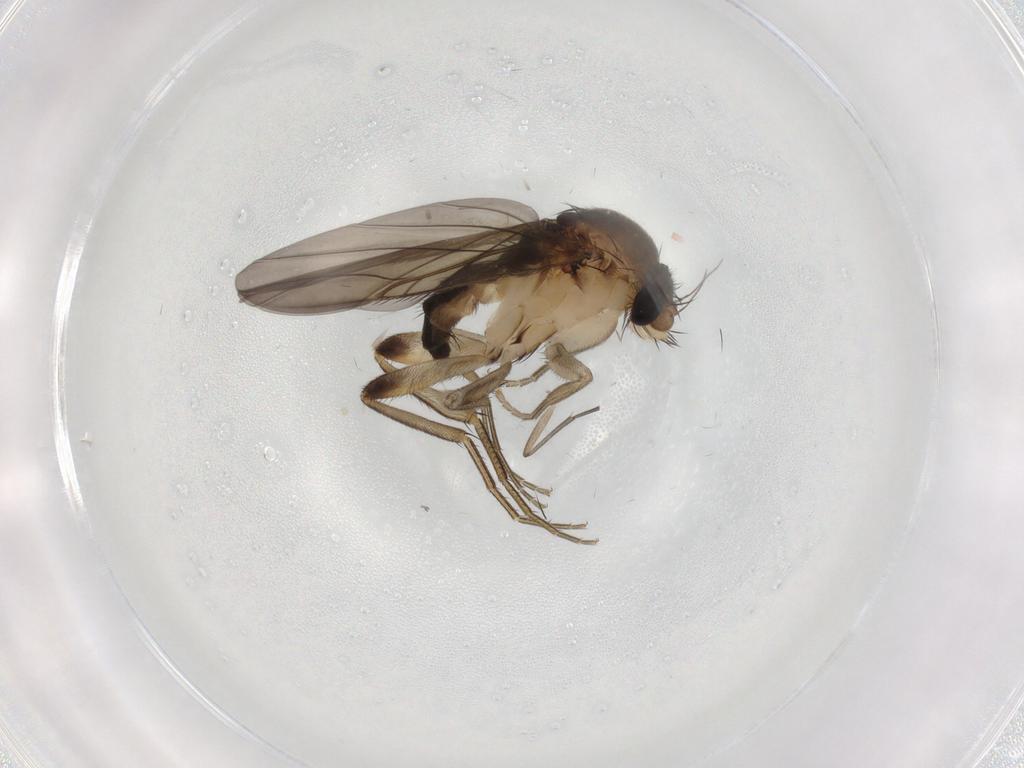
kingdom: Animalia
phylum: Arthropoda
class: Insecta
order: Diptera
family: Phoridae
